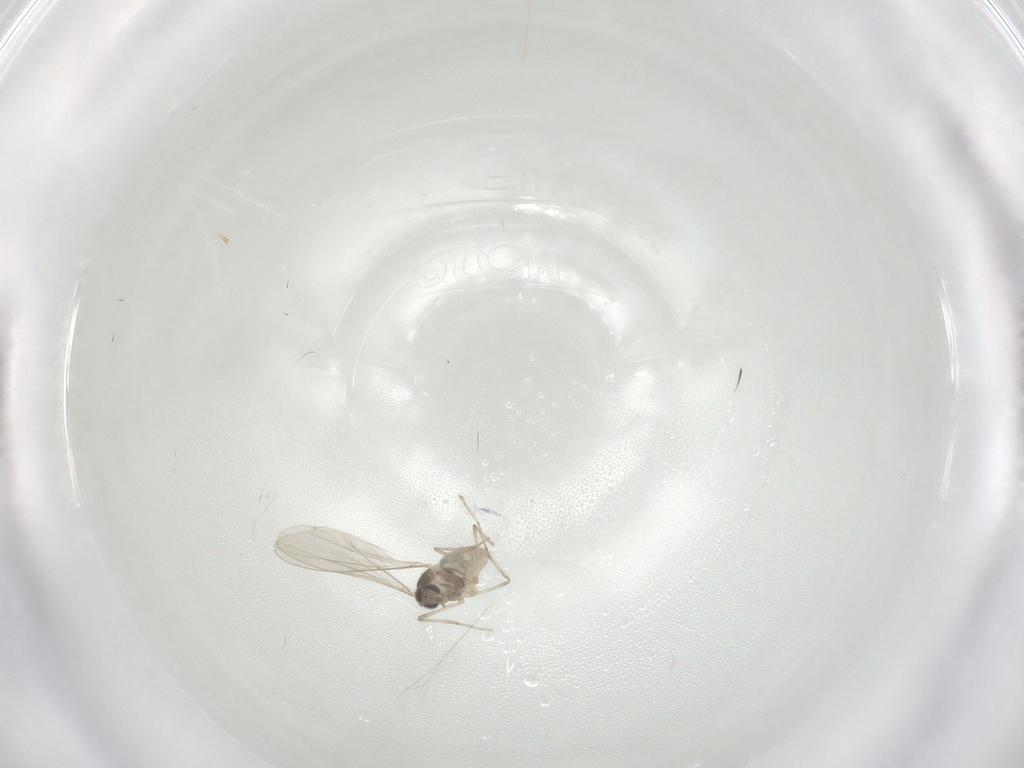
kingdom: Animalia
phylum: Arthropoda
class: Insecta
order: Diptera
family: Cecidomyiidae
